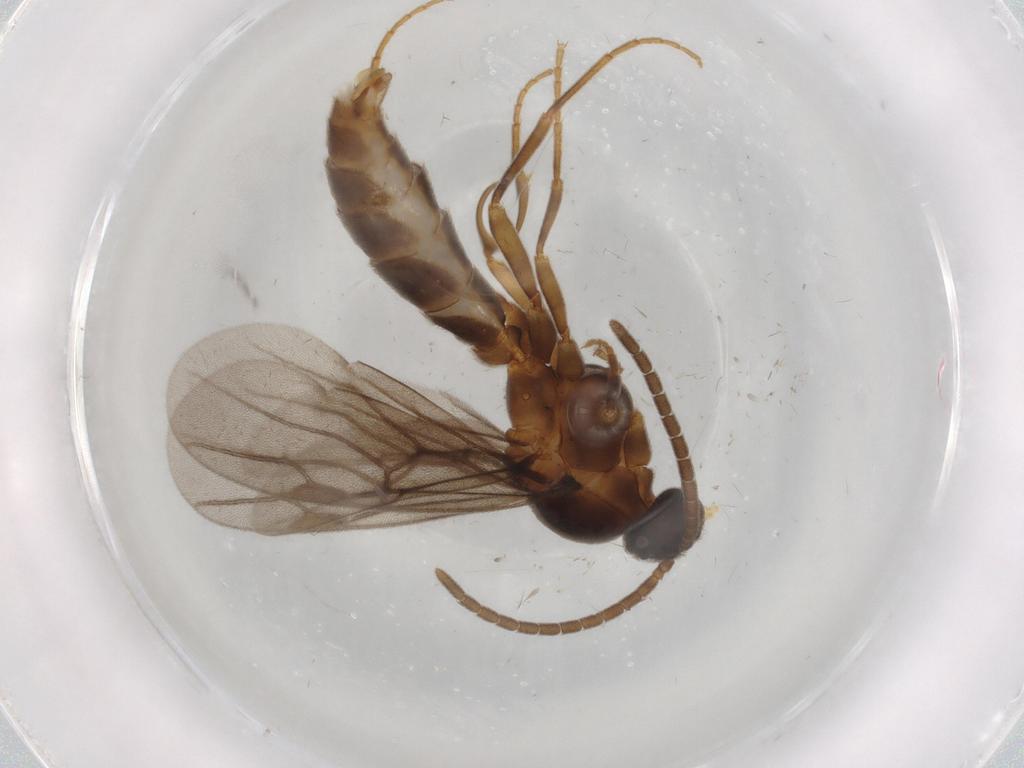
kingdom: Animalia
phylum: Arthropoda
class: Insecta
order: Hymenoptera
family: Formicidae
